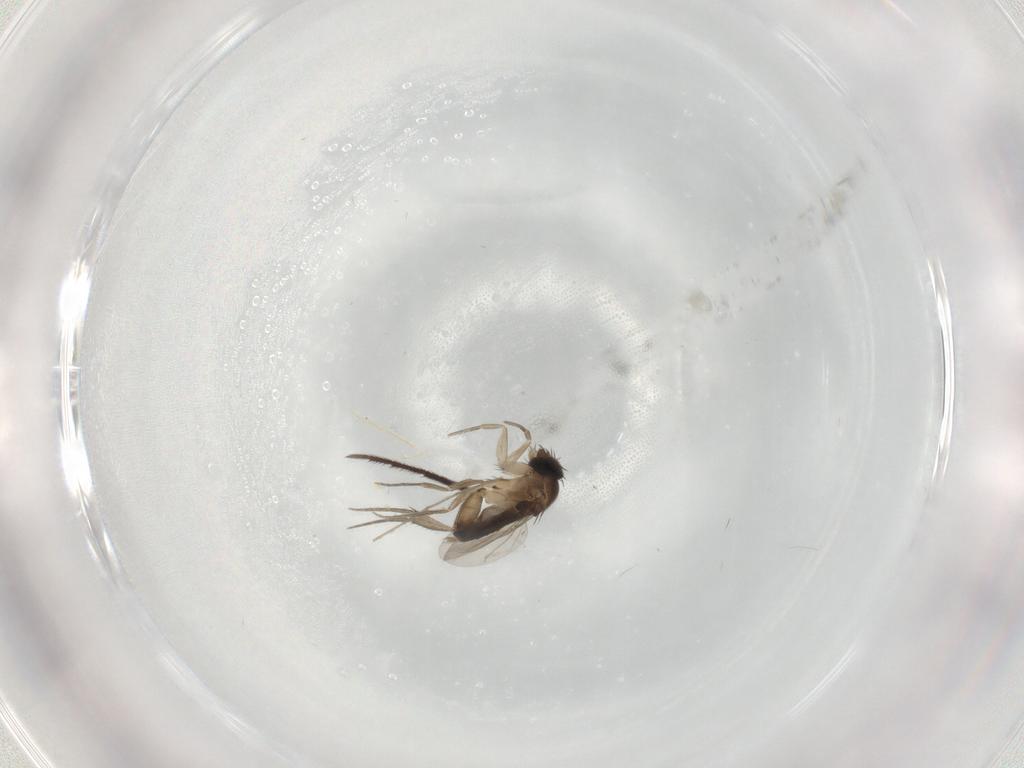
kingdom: Animalia
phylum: Arthropoda
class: Insecta
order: Diptera
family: Phoridae
